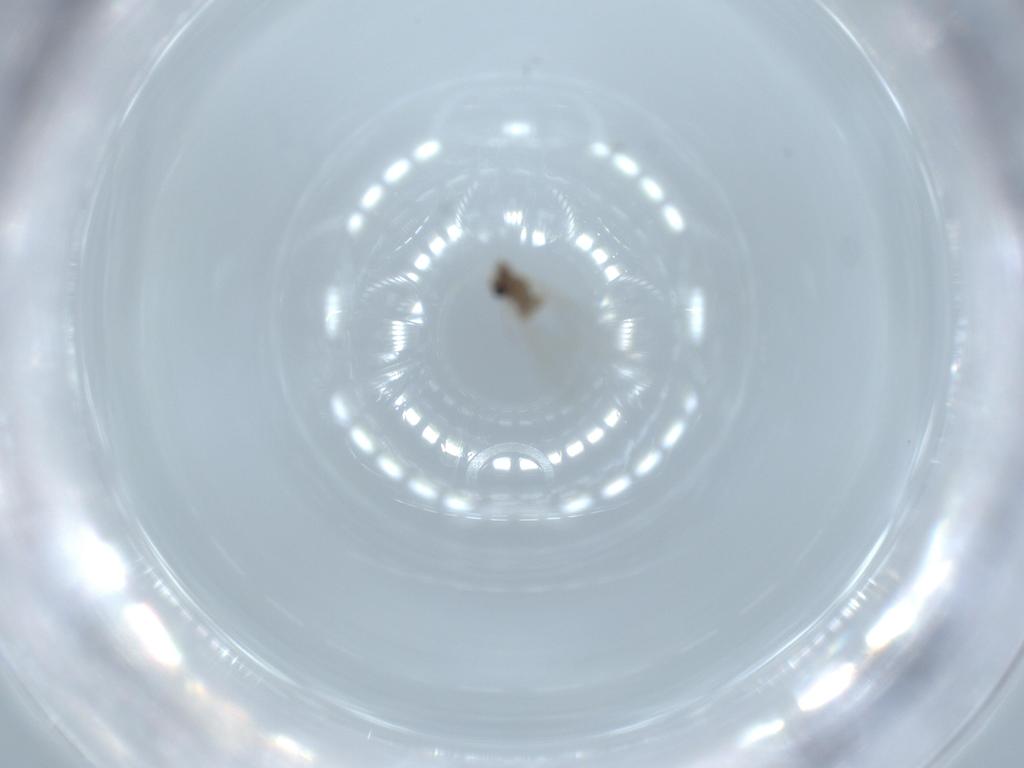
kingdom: Animalia
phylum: Arthropoda
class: Insecta
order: Diptera
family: Cecidomyiidae
